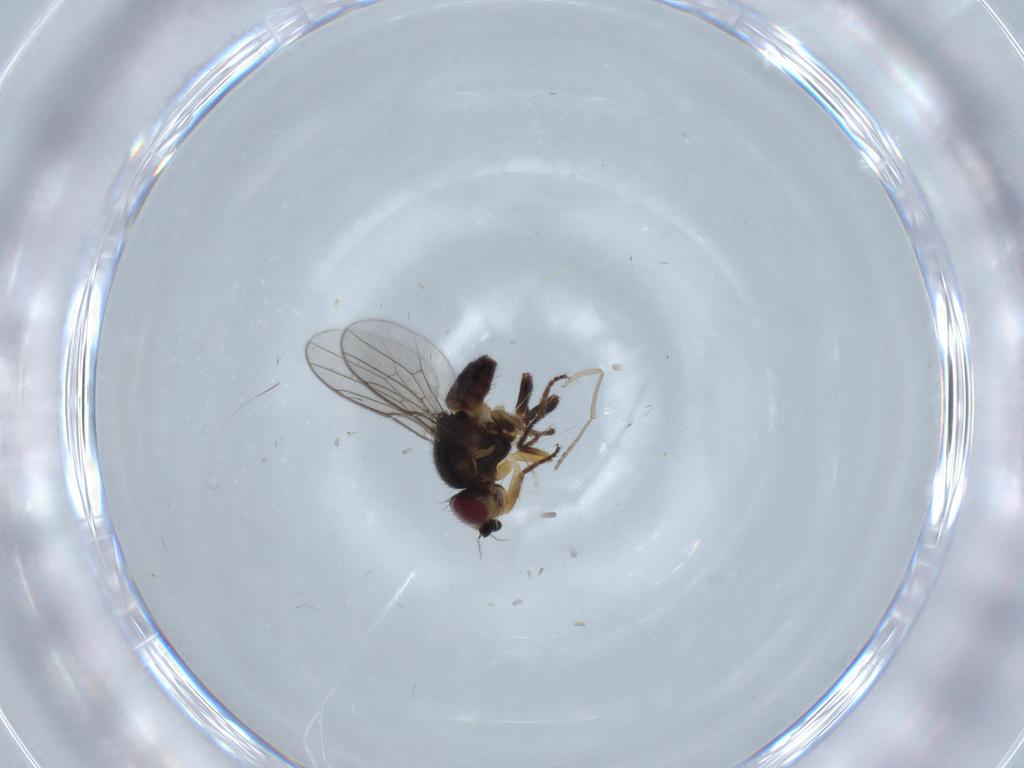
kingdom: Animalia
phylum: Arthropoda
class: Insecta
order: Diptera
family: Chloropidae
